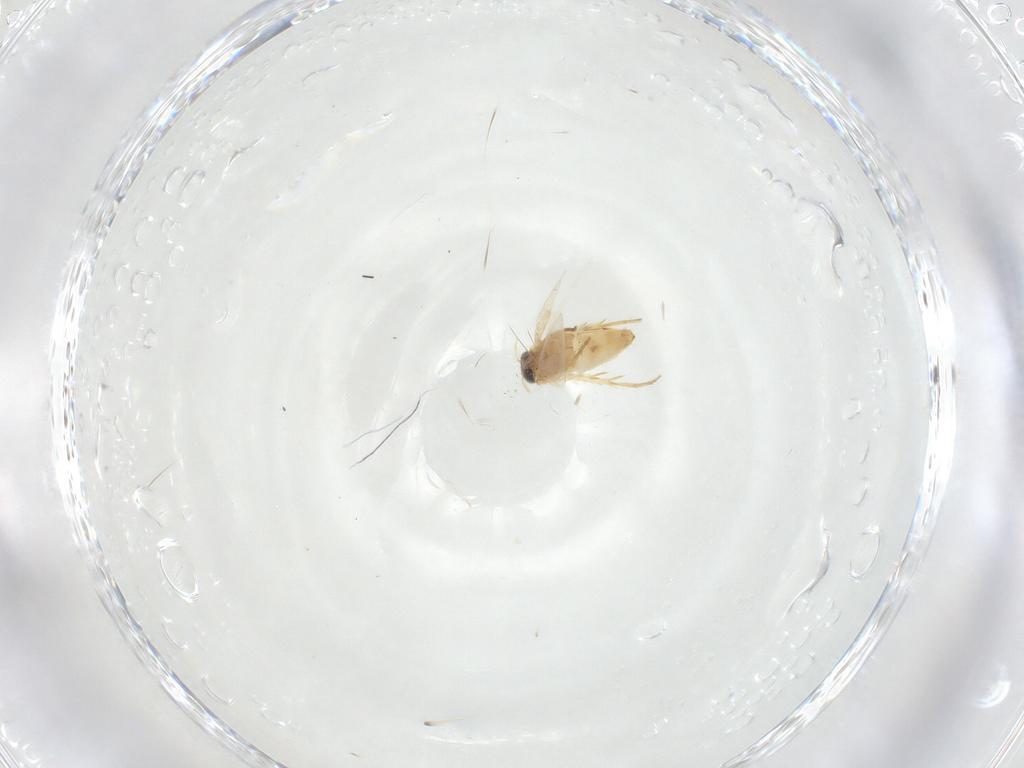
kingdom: Animalia
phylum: Arthropoda
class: Insecta
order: Lepidoptera
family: Crambidae
